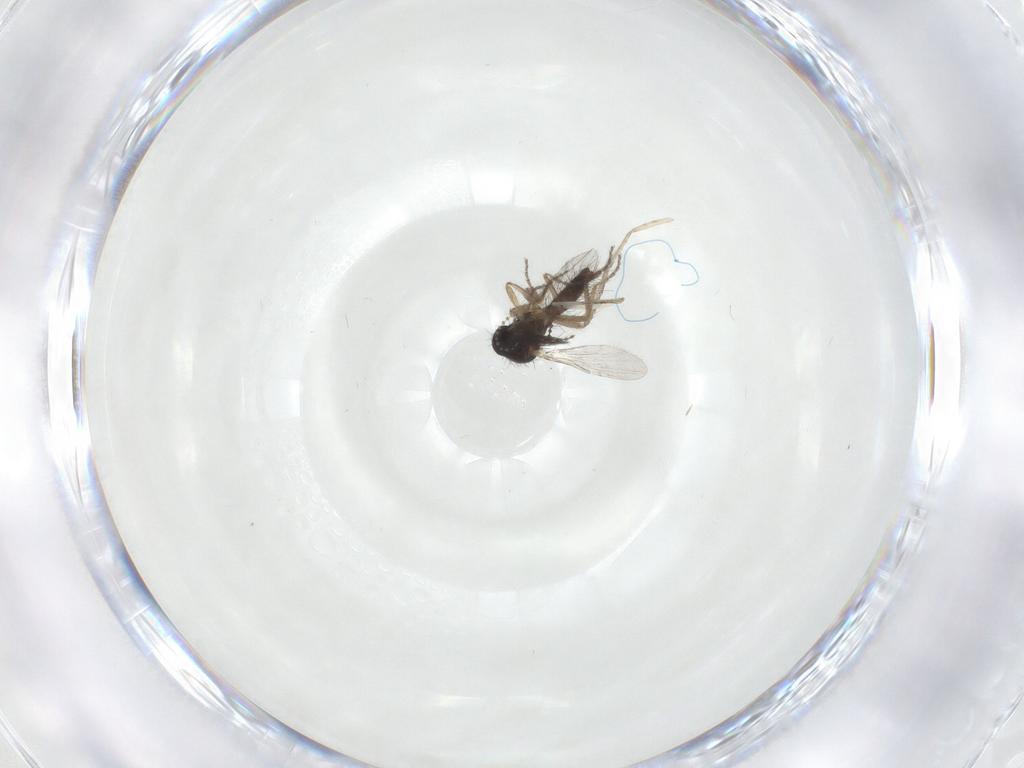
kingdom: Animalia
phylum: Arthropoda
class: Insecta
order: Diptera
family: Ceratopogonidae
